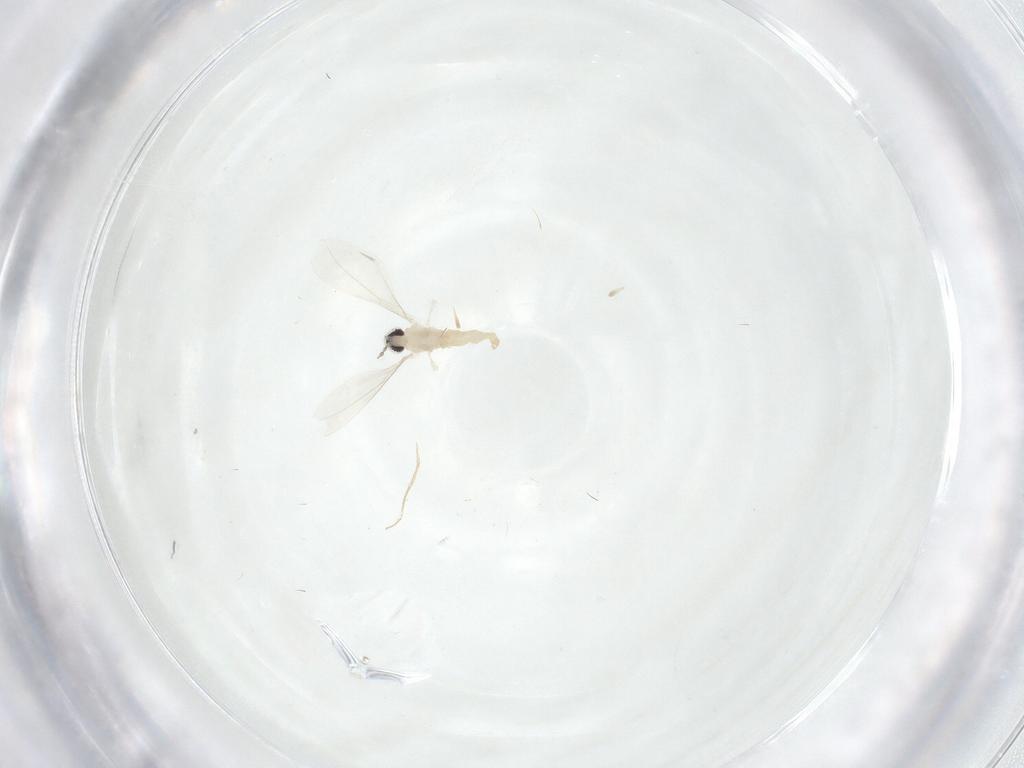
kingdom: Animalia
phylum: Arthropoda
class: Insecta
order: Diptera
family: Cecidomyiidae
